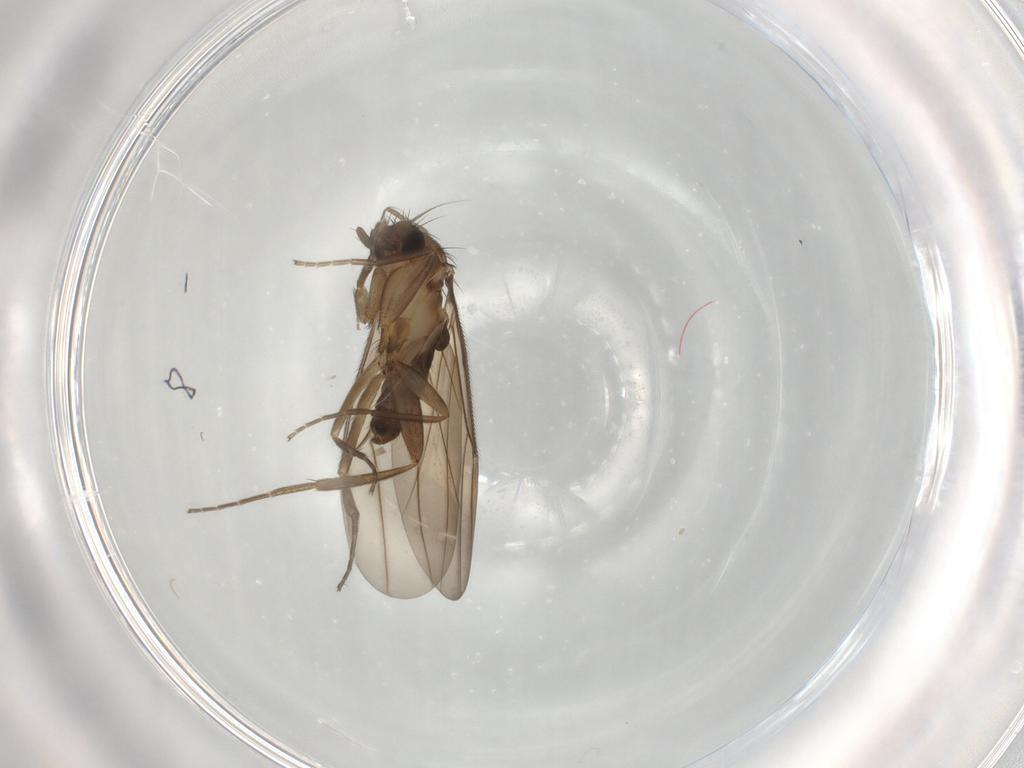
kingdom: Animalia
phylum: Arthropoda
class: Insecta
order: Diptera
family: Phoridae
